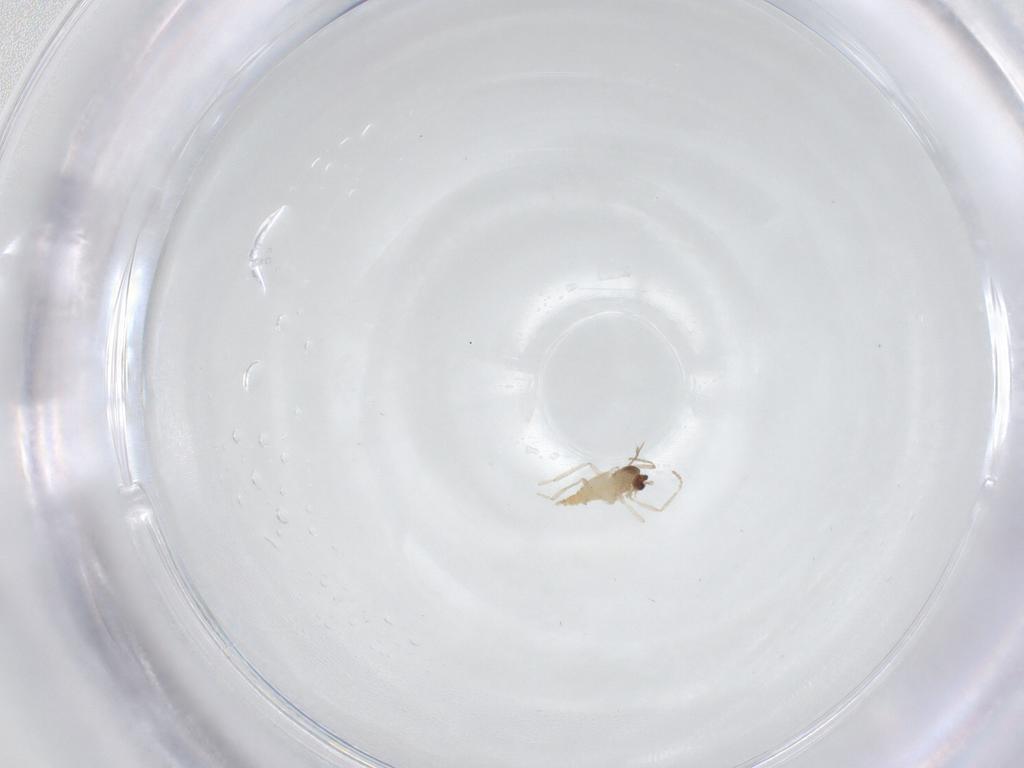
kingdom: Animalia
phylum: Arthropoda
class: Insecta
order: Diptera
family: Cecidomyiidae
